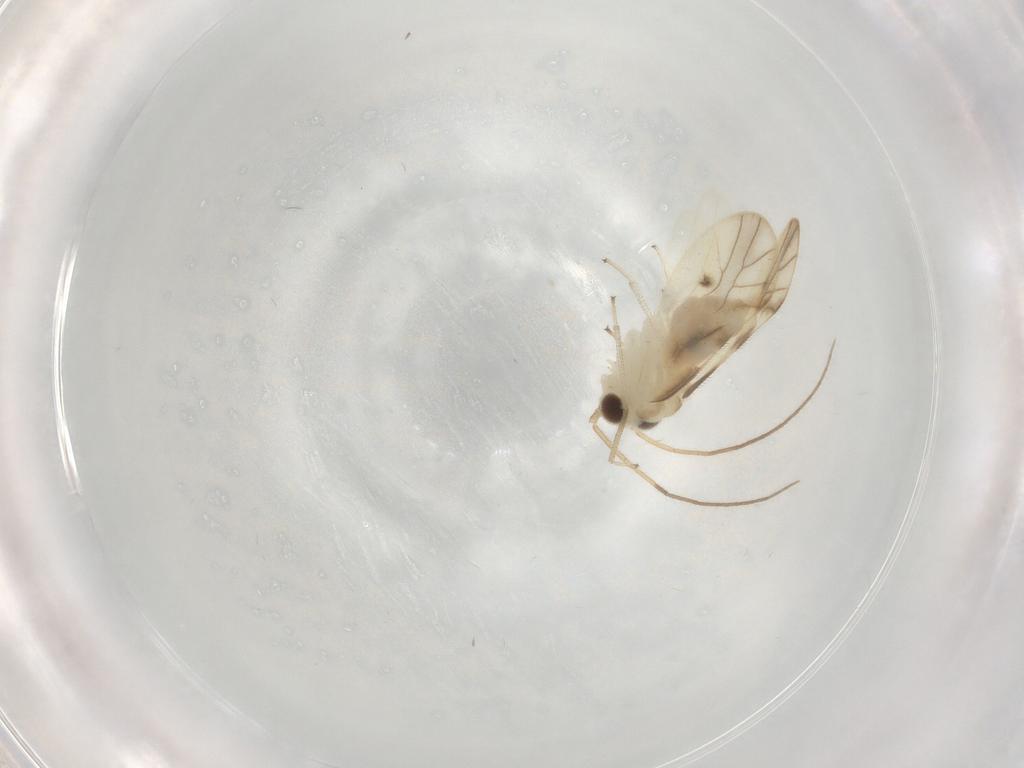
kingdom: Animalia
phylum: Arthropoda
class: Insecta
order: Psocodea
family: Caeciliusidae
